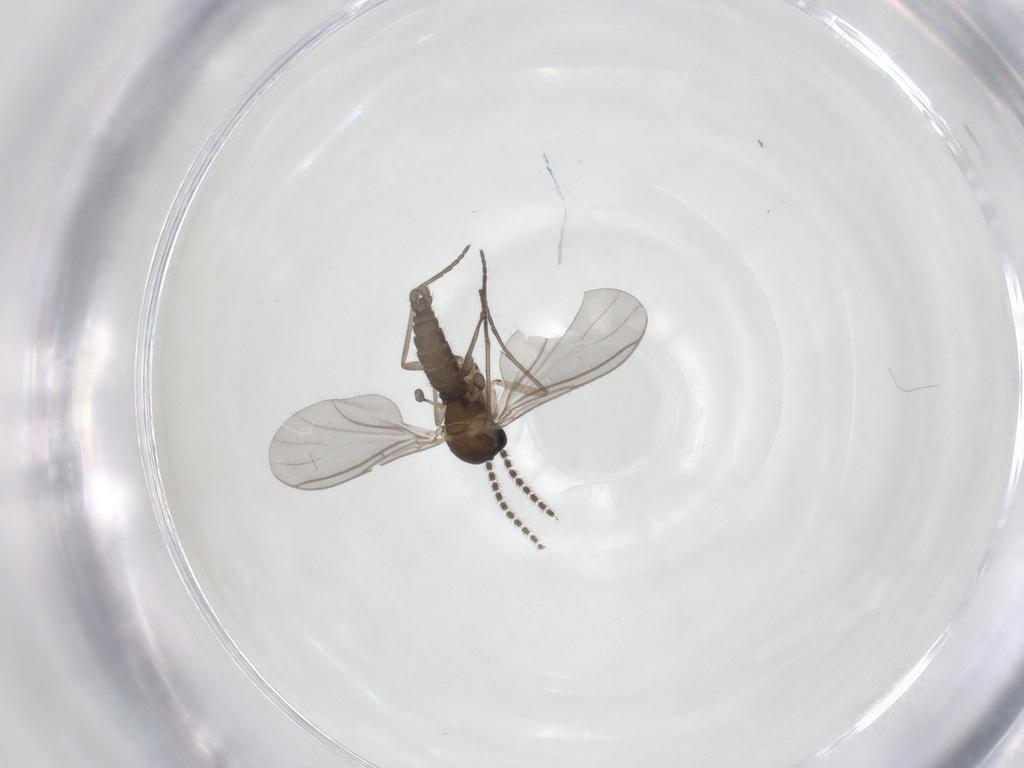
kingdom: Animalia
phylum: Arthropoda
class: Insecta
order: Diptera
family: Sciaridae
